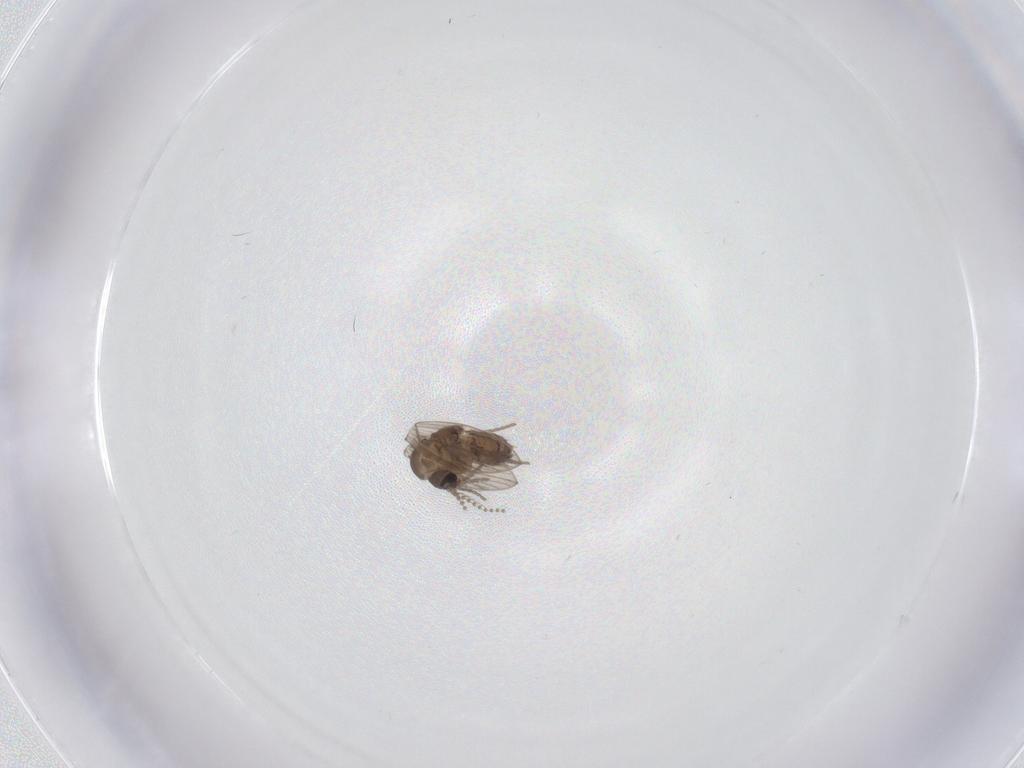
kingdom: Animalia
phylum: Arthropoda
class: Insecta
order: Diptera
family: Psychodidae
